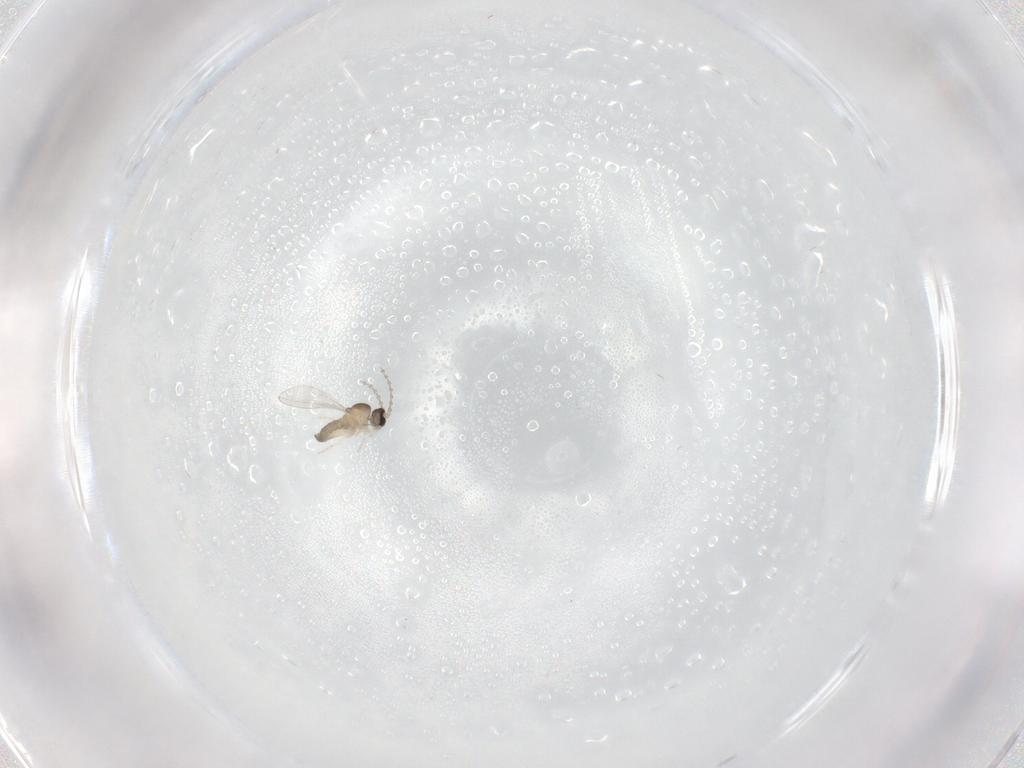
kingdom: Animalia
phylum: Arthropoda
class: Insecta
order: Diptera
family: Cecidomyiidae
